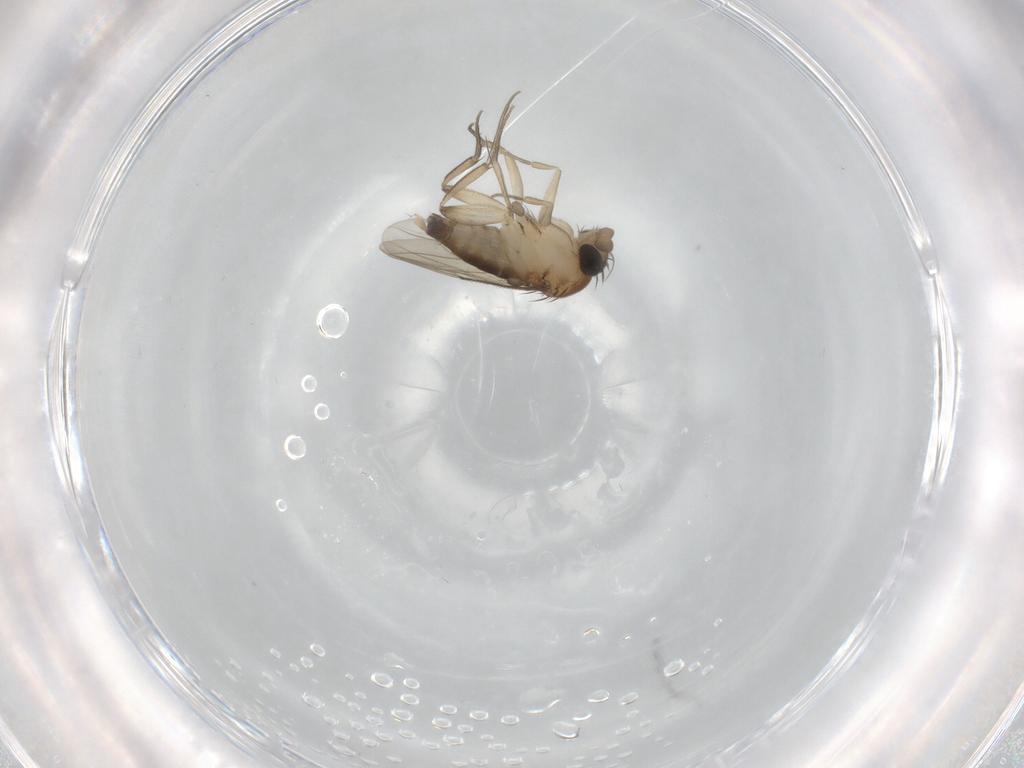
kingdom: Animalia
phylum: Arthropoda
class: Insecta
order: Diptera
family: Phoridae
